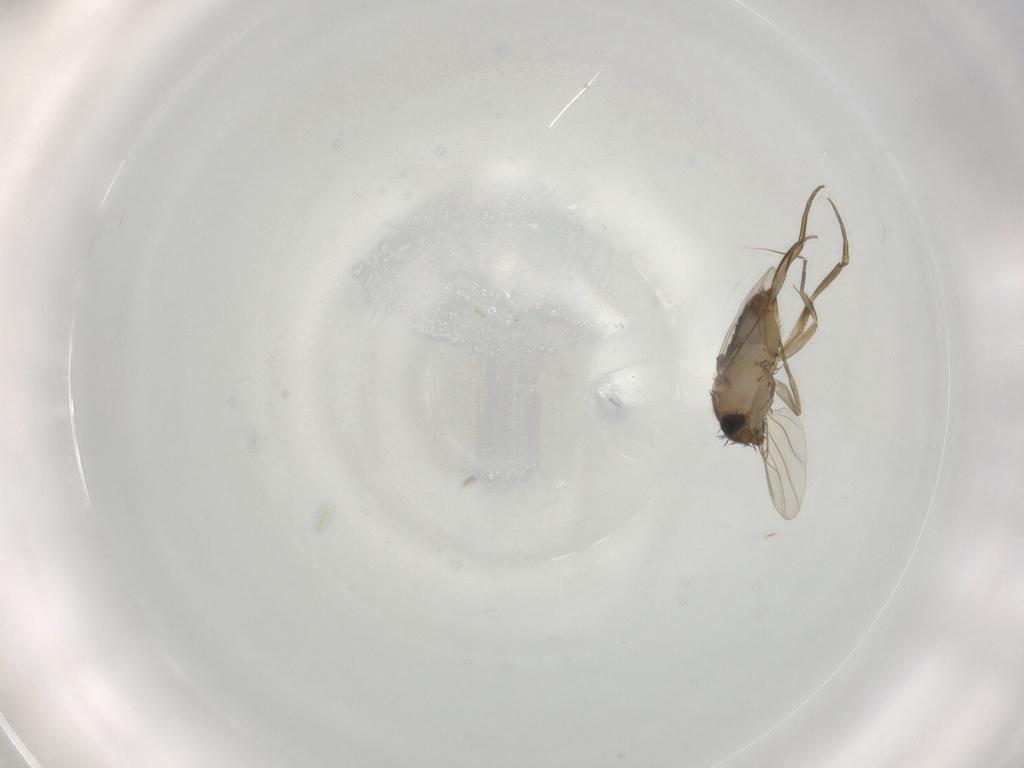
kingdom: Animalia
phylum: Arthropoda
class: Insecta
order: Diptera
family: Phoridae
